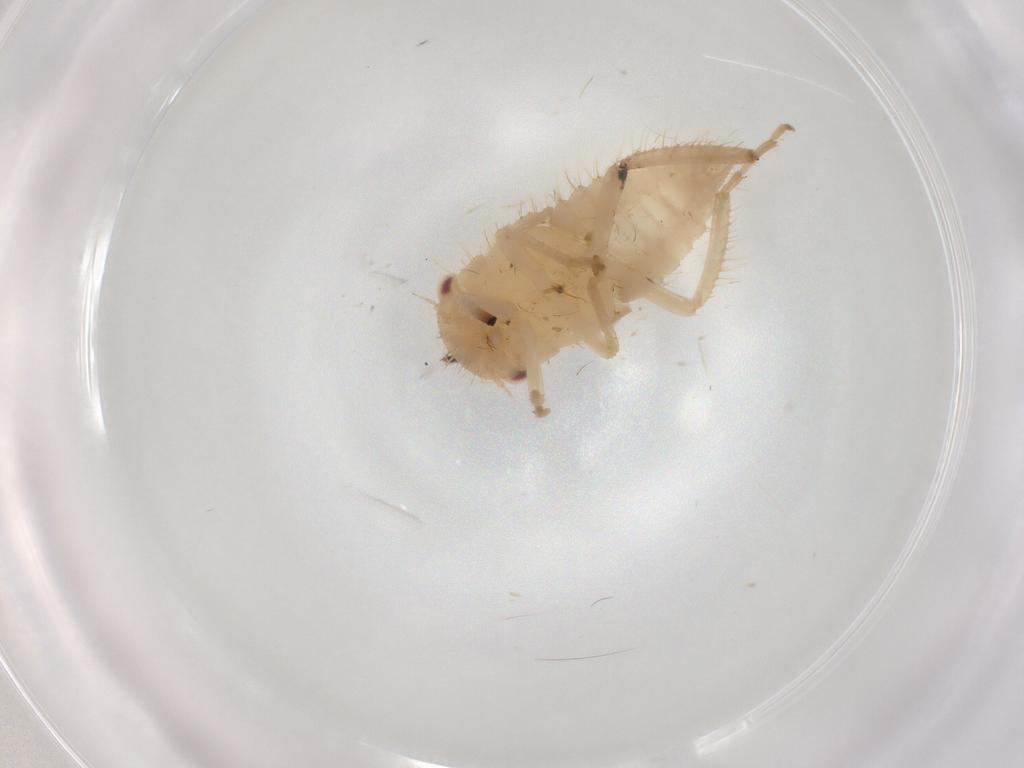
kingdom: Animalia
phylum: Arthropoda
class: Insecta
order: Hemiptera
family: Cicadellidae
